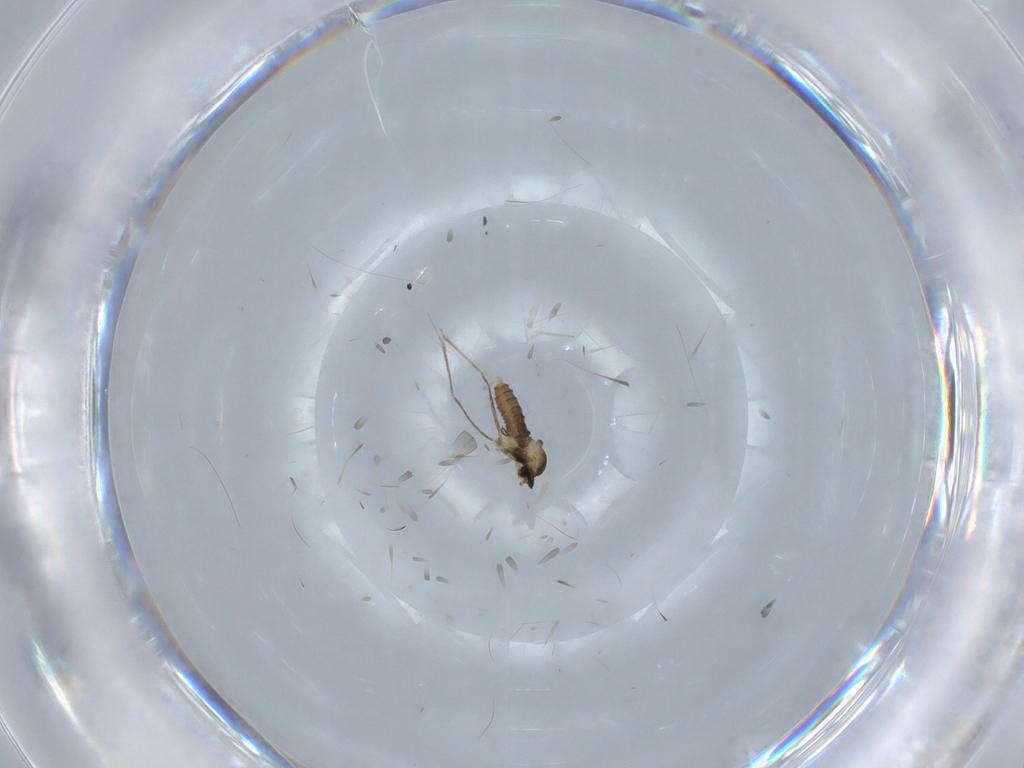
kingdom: Animalia
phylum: Arthropoda
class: Insecta
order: Diptera
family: Cecidomyiidae
